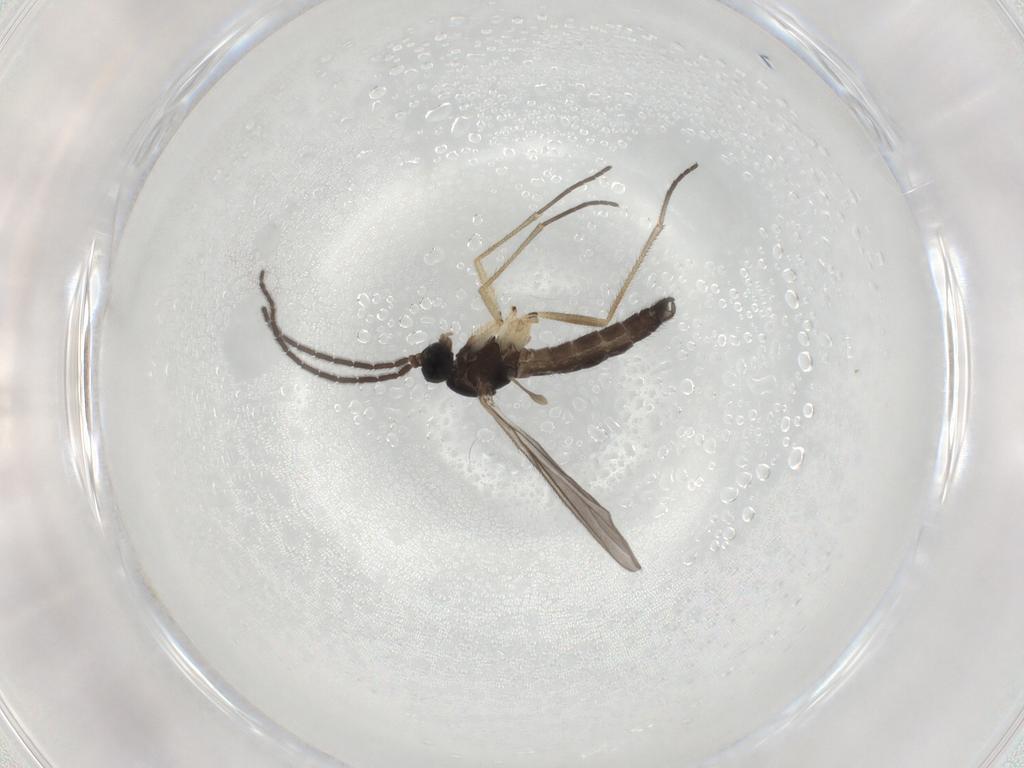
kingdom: Animalia
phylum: Arthropoda
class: Insecta
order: Diptera
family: Sciaridae
